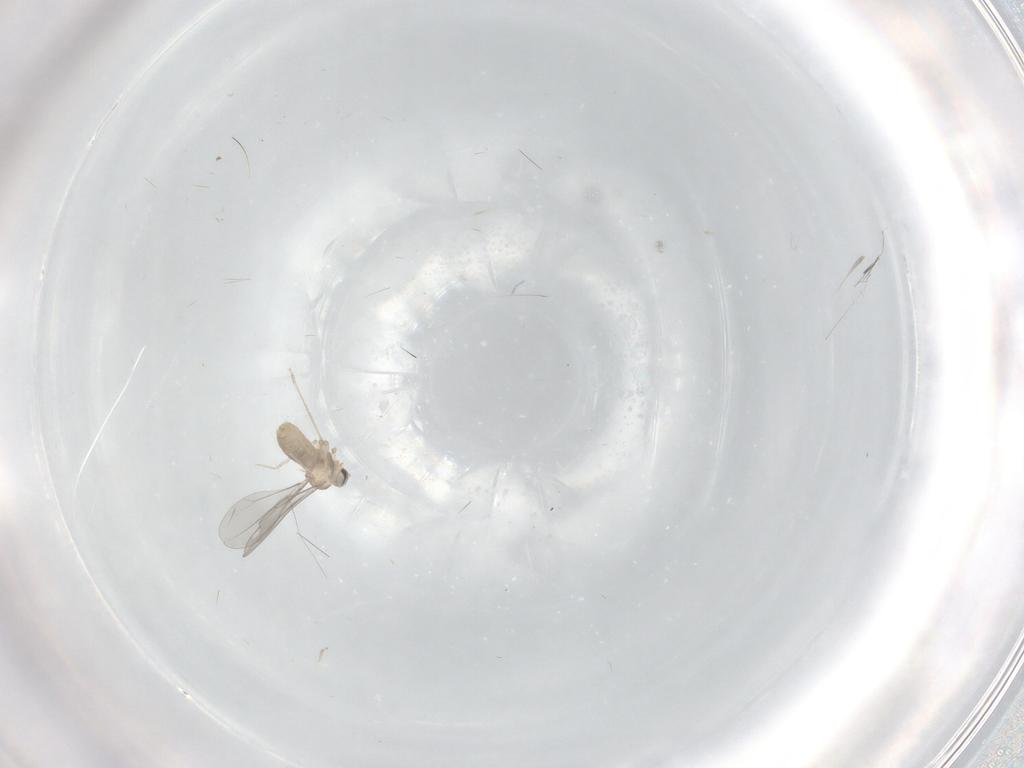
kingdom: Animalia
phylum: Arthropoda
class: Insecta
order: Diptera
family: Cecidomyiidae
